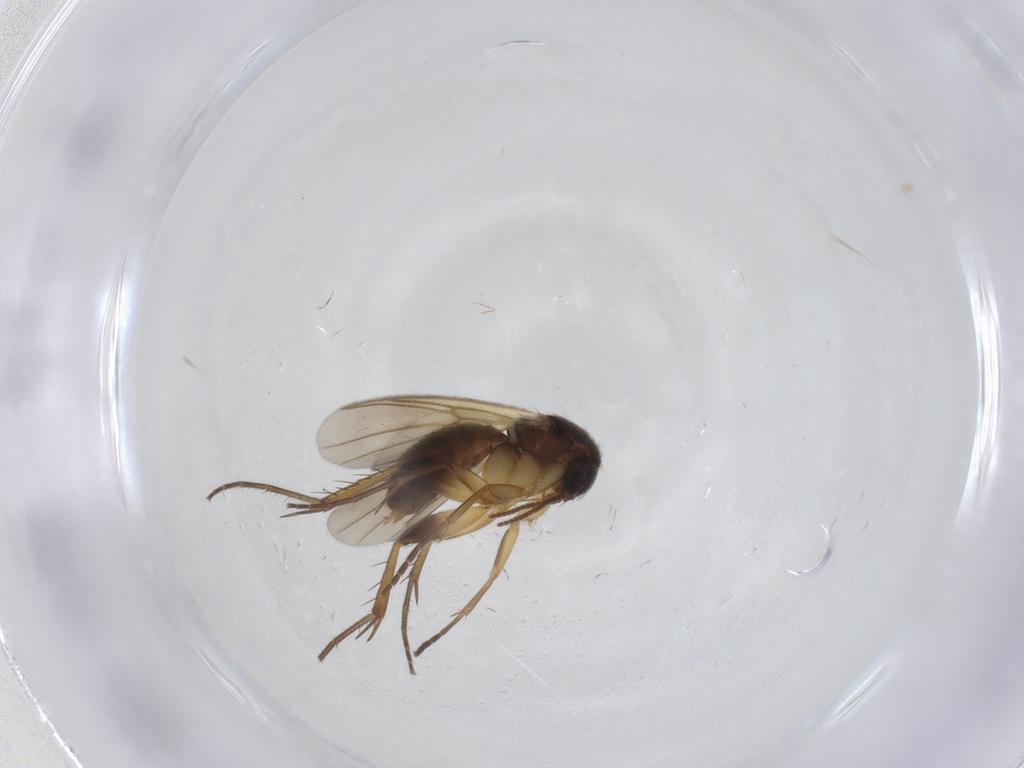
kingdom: Animalia
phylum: Arthropoda
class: Insecta
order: Diptera
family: Mycetophilidae
